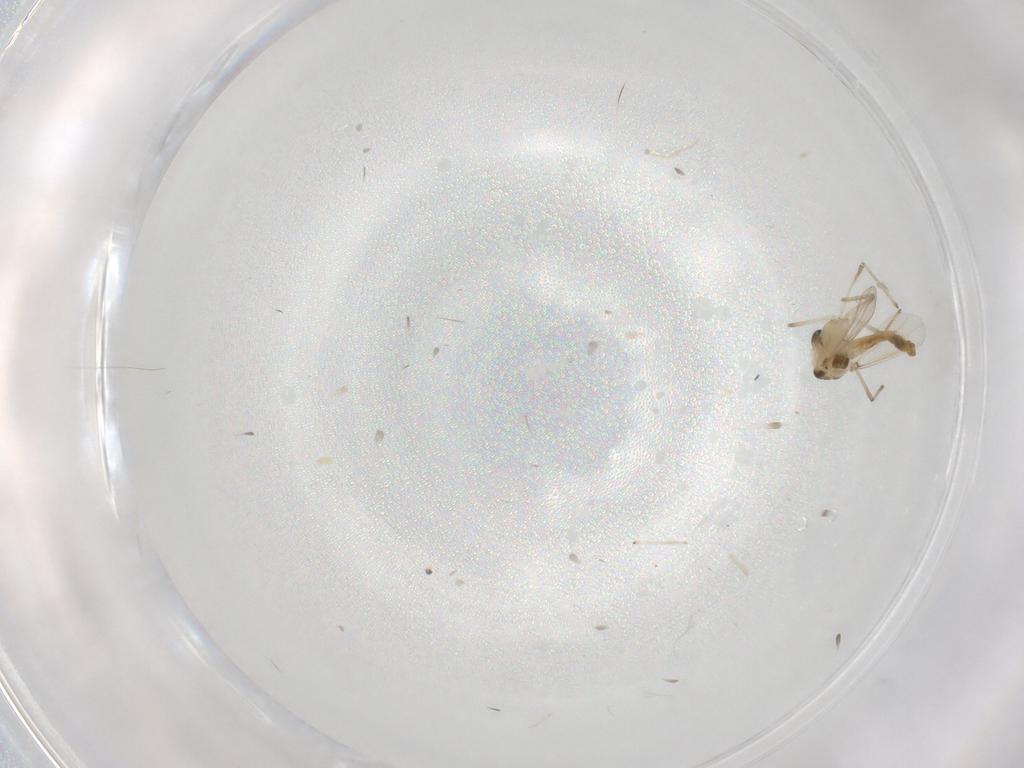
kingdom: Animalia
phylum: Arthropoda
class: Insecta
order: Diptera
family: Chironomidae
